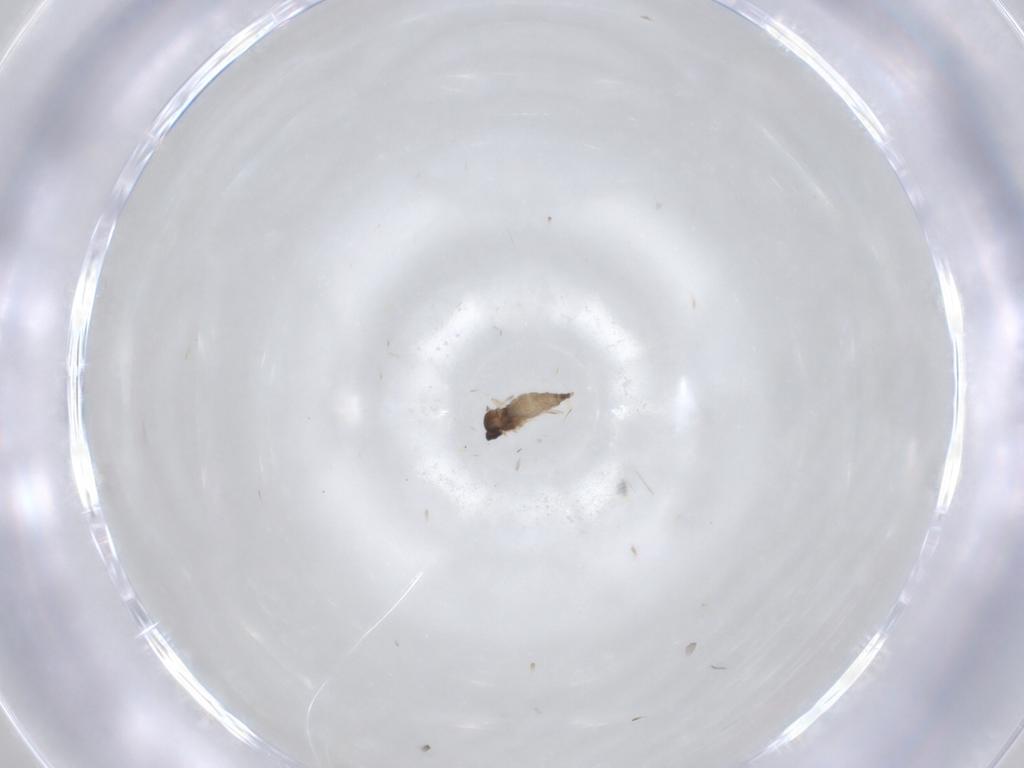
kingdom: Animalia
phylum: Arthropoda
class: Insecta
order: Diptera
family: Cecidomyiidae
